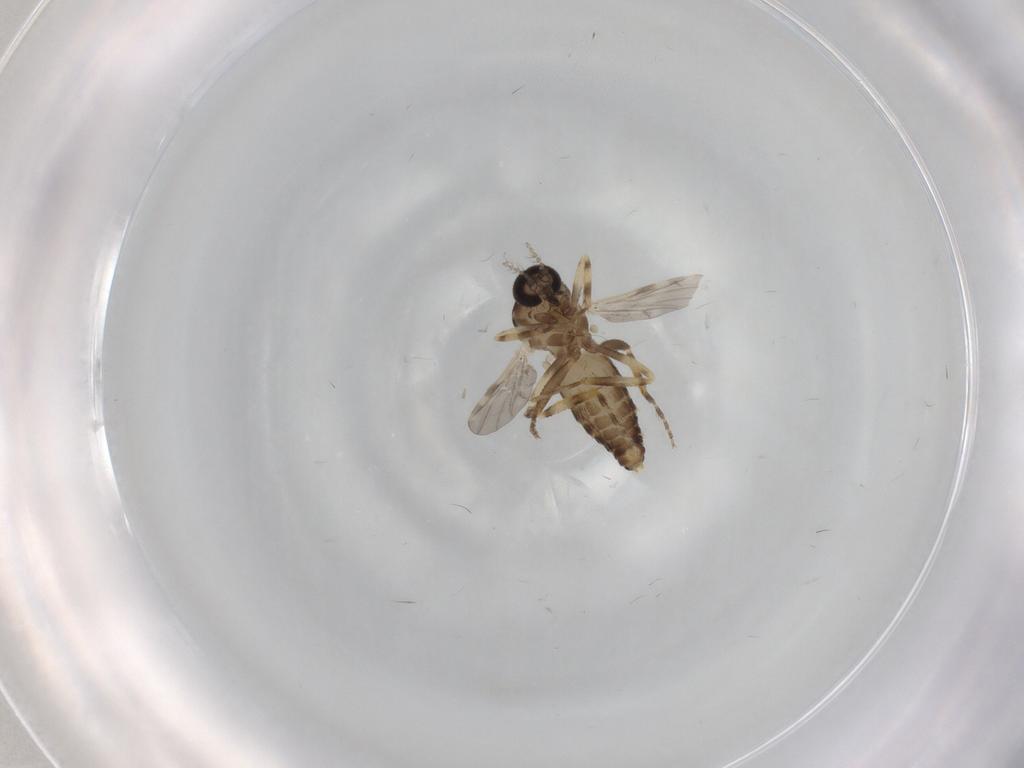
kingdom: Animalia
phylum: Arthropoda
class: Insecta
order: Diptera
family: Ceratopogonidae
